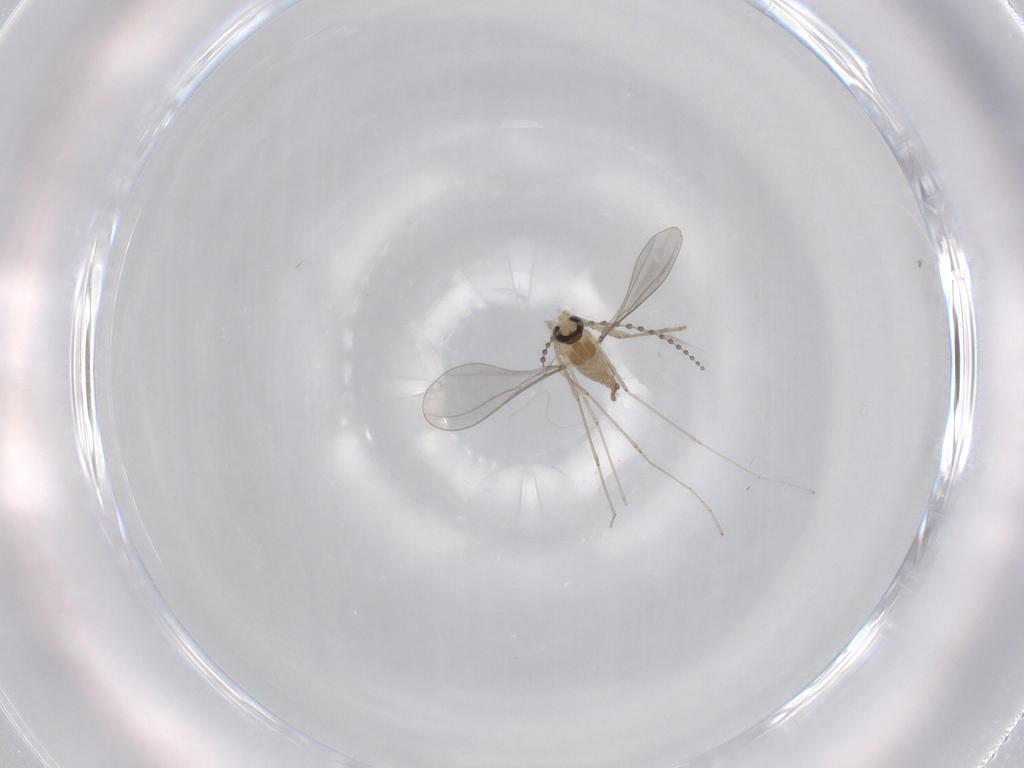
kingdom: Animalia
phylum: Arthropoda
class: Insecta
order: Diptera
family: Cecidomyiidae
